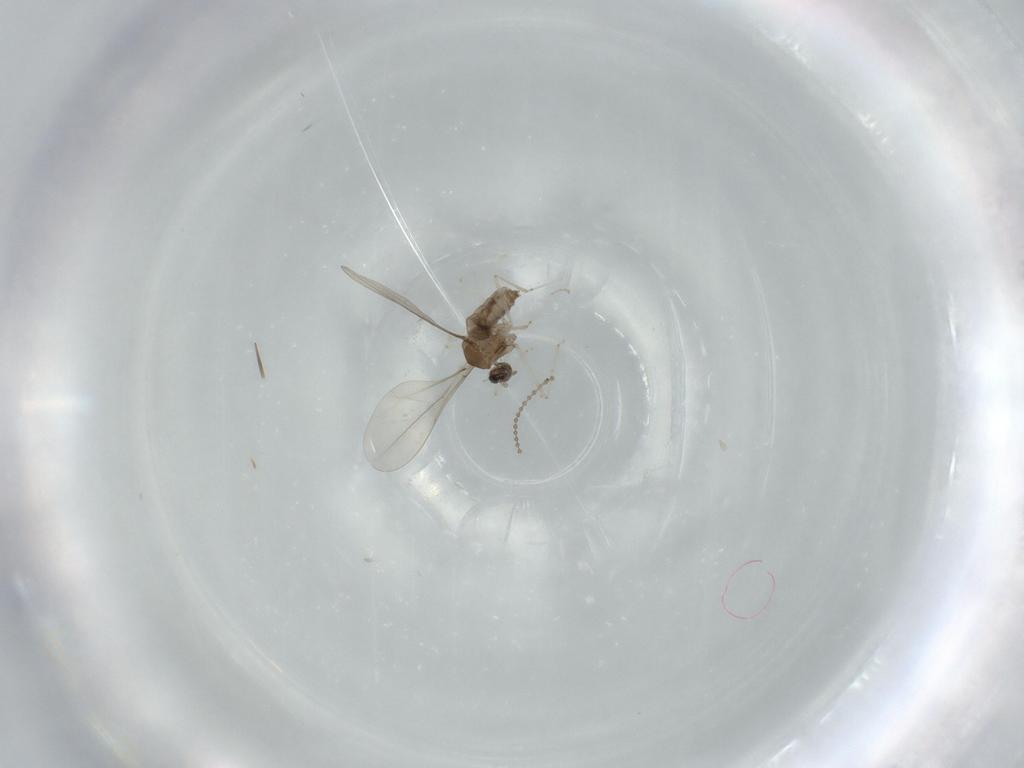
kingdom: Animalia
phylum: Arthropoda
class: Insecta
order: Diptera
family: Cecidomyiidae
